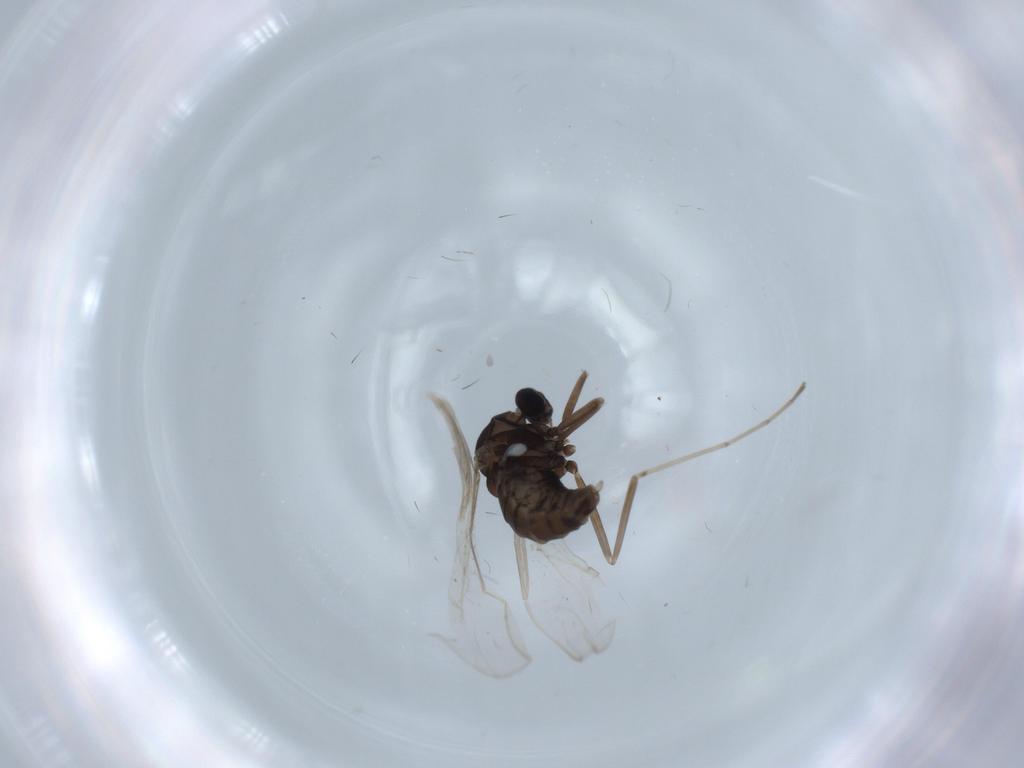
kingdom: Animalia
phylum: Arthropoda
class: Insecta
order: Diptera
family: Cecidomyiidae
